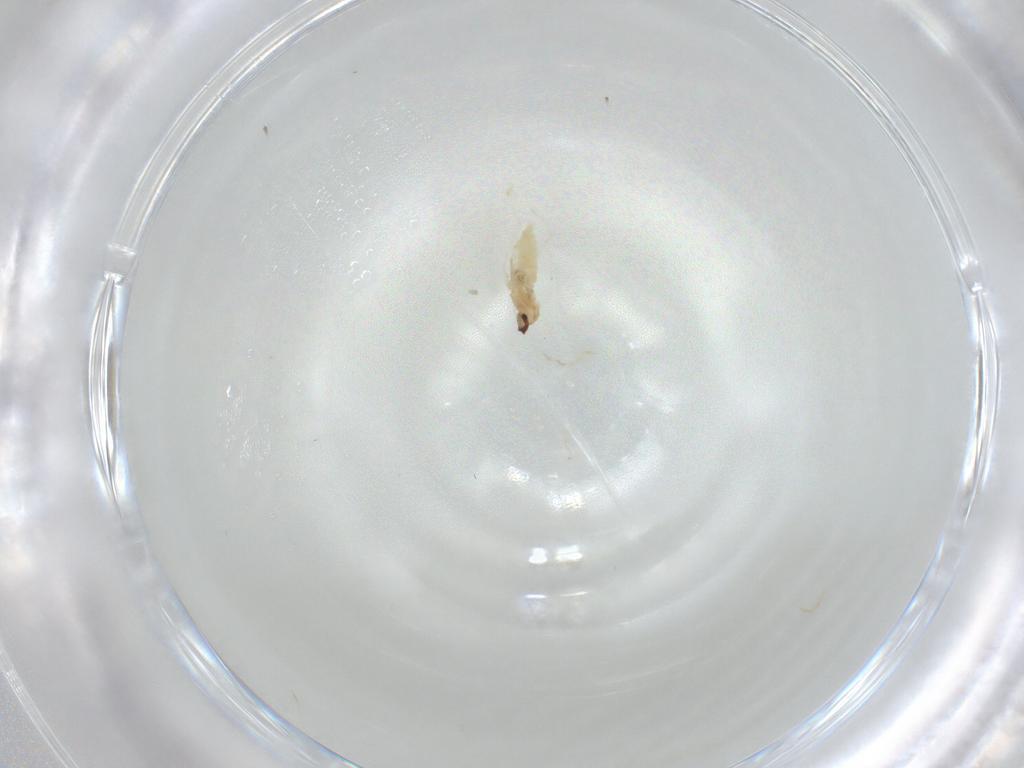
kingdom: Animalia
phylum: Arthropoda
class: Insecta
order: Diptera
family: Cecidomyiidae
